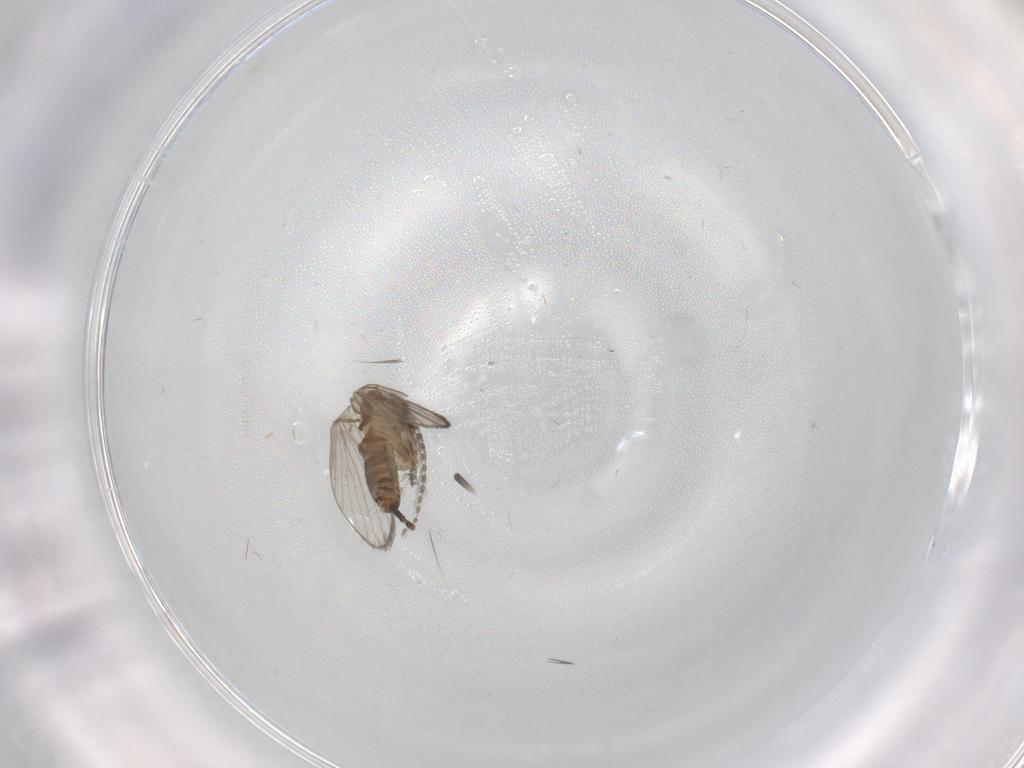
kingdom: Animalia
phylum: Arthropoda
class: Insecta
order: Diptera
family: Psychodidae
